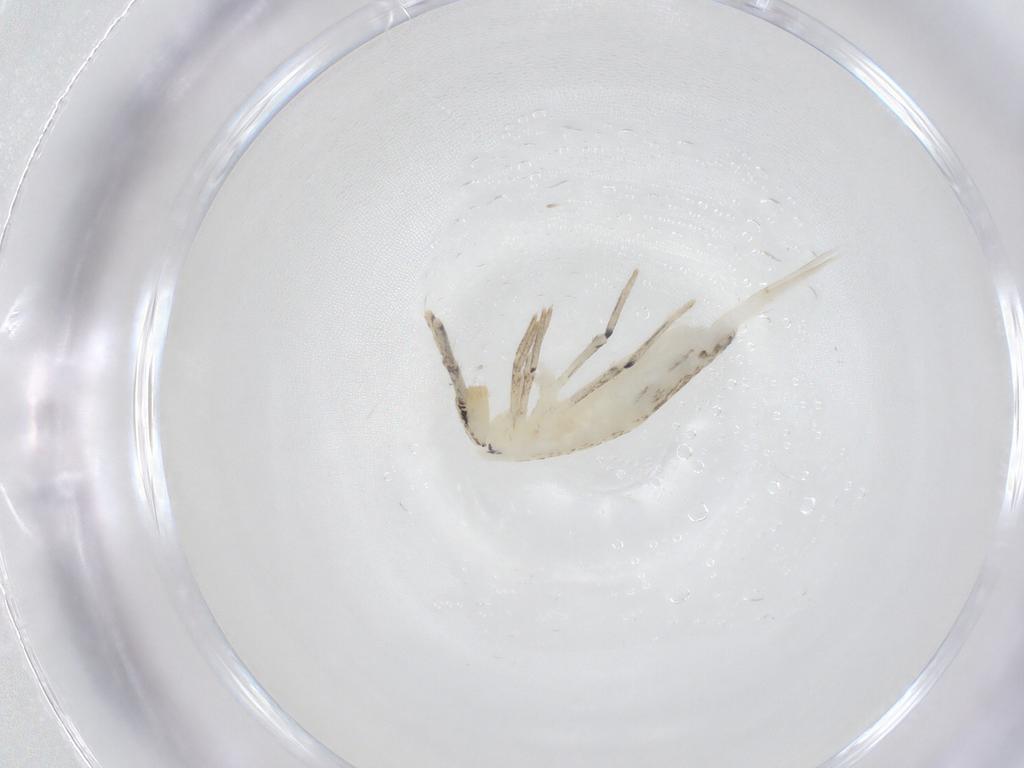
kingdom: Animalia
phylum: Arthropoda
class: Collembola
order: Entomobryomorpha
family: Entomobryidae
